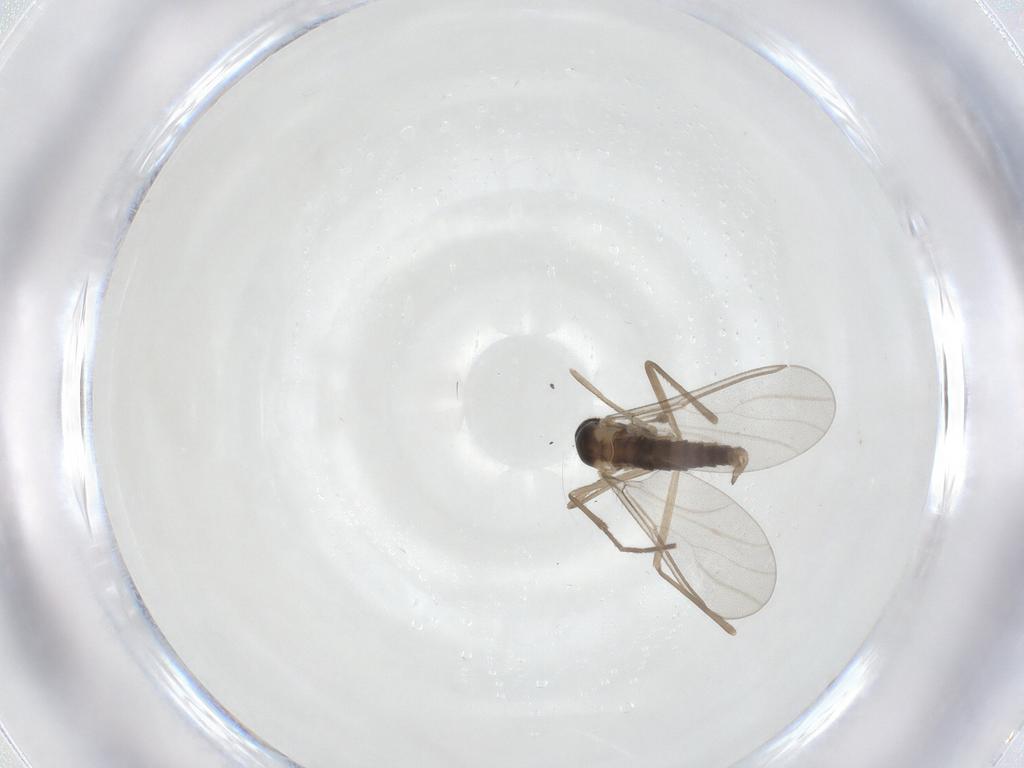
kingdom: Animalia
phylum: Arthropoda
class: Insecta
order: Diptera
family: Cecidomyiidae
